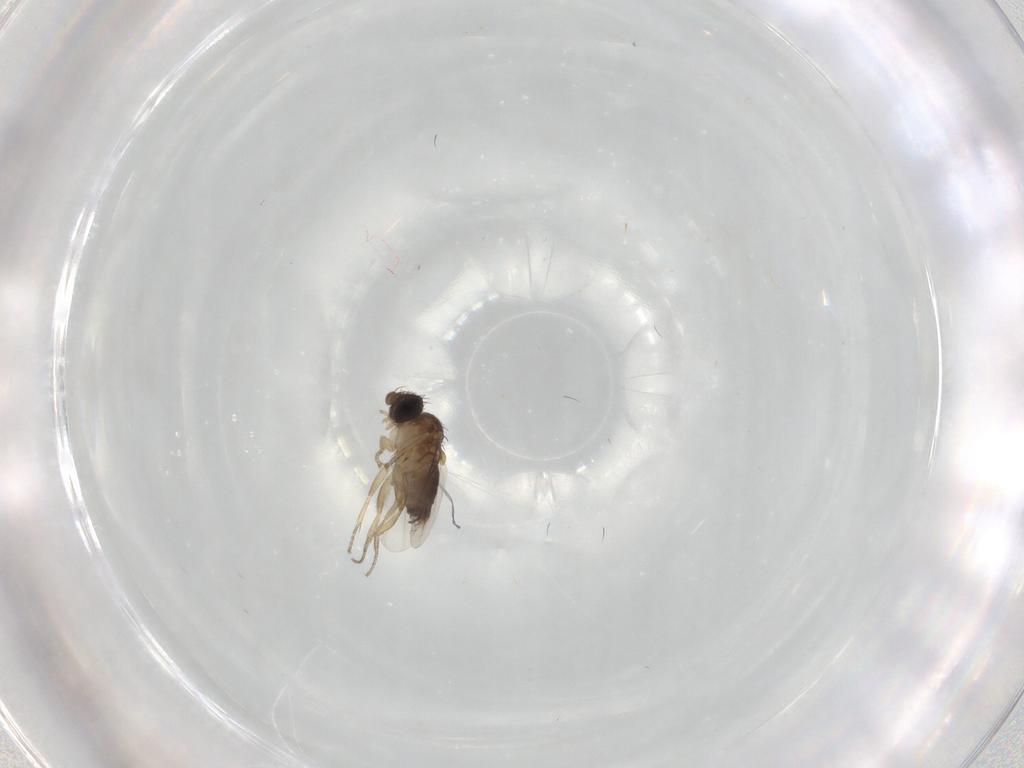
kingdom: Animalia
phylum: Arthropoda
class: Insecta
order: Diptera
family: Phoridae
